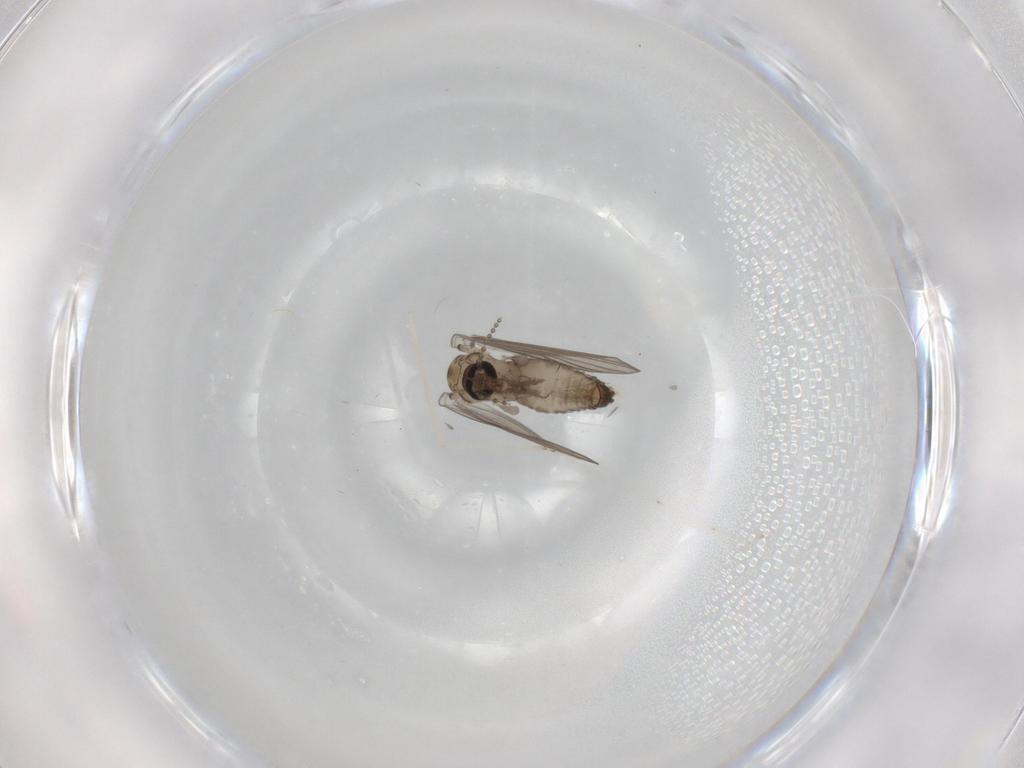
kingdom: Animalia
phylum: Arthropoda
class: Insecta
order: Diptera
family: Psychodidae
